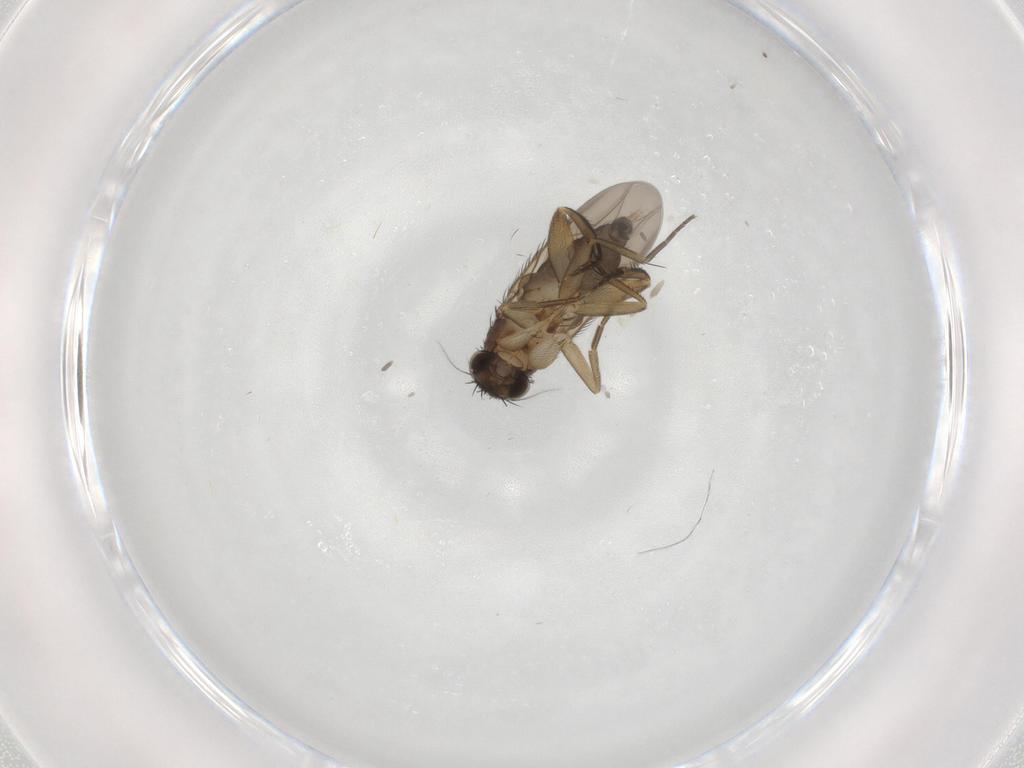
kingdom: Animalia
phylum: Arthropoda
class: Insecta
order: Diptera
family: Phoridae
